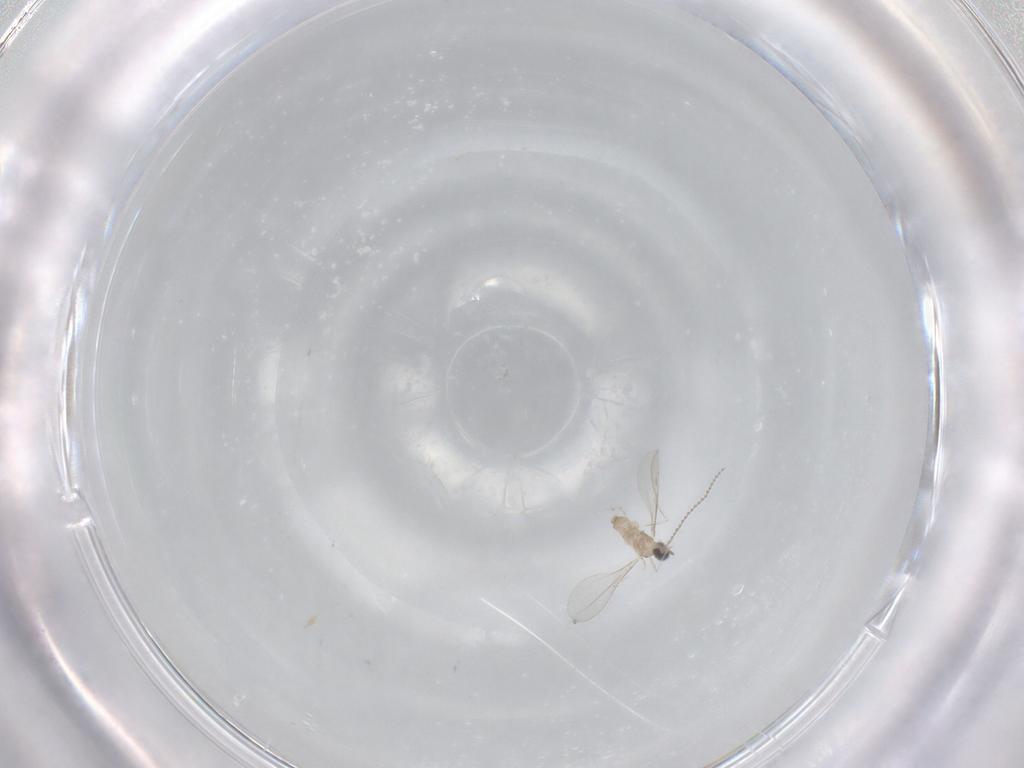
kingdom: Animalia
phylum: Arthropoda
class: Insecta
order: Diptera
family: Cecidomyiidae
